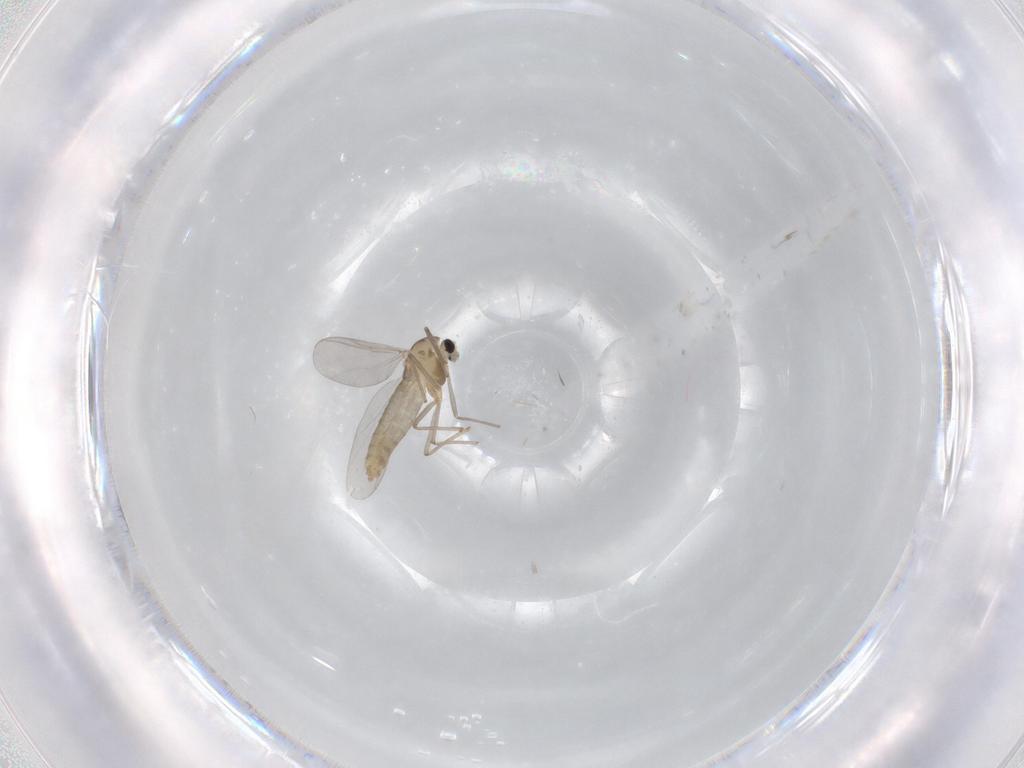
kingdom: Animalia
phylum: Arthropoda
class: Insecta
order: Diptera
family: Chironomidae
